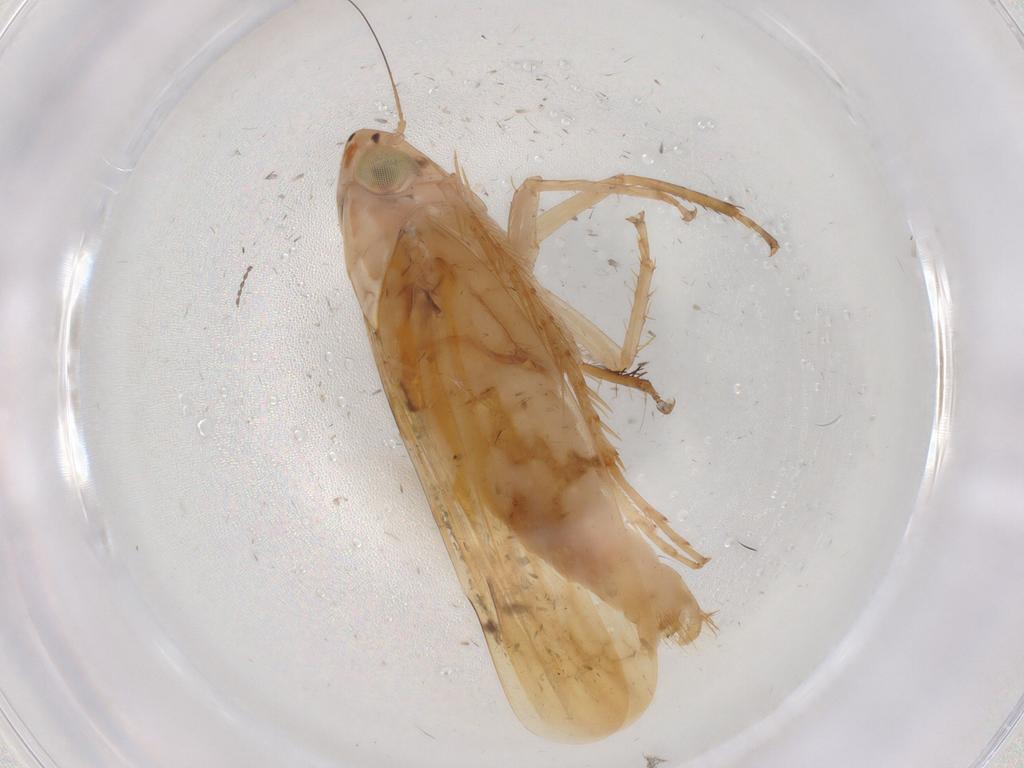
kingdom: Animalia
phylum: Arthropoda
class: Insecta
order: Hemiptera
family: Cicadellidae
